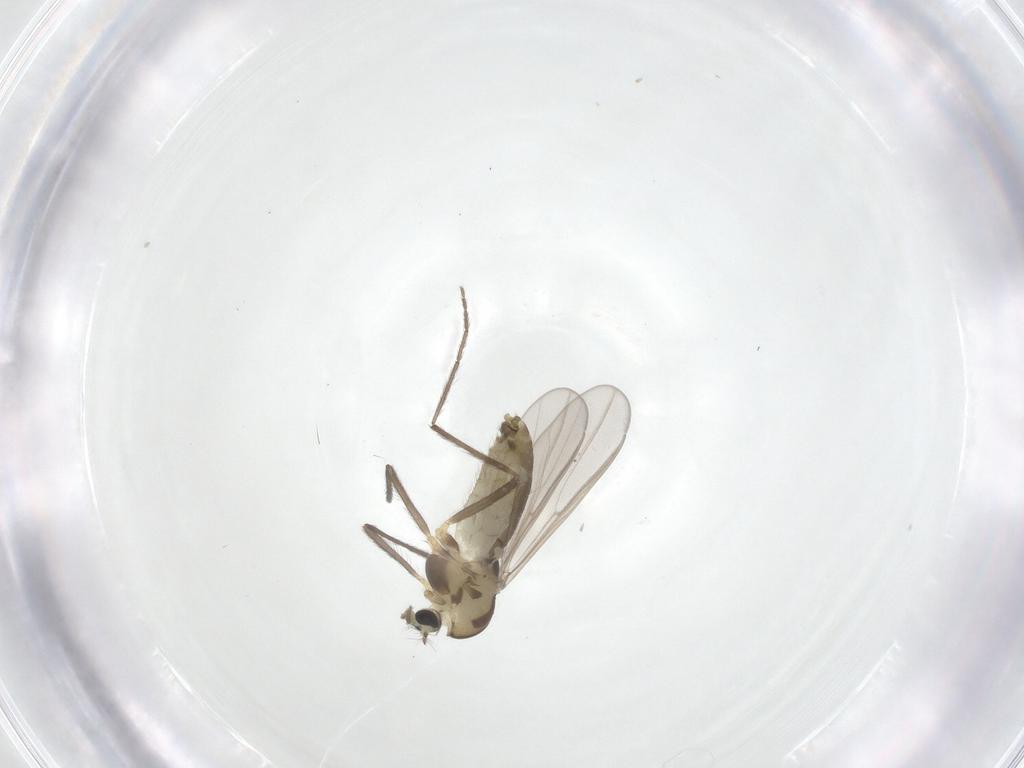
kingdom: Animalia
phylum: Arthropoda
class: Insecta
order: Diptera
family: Chironomidae
